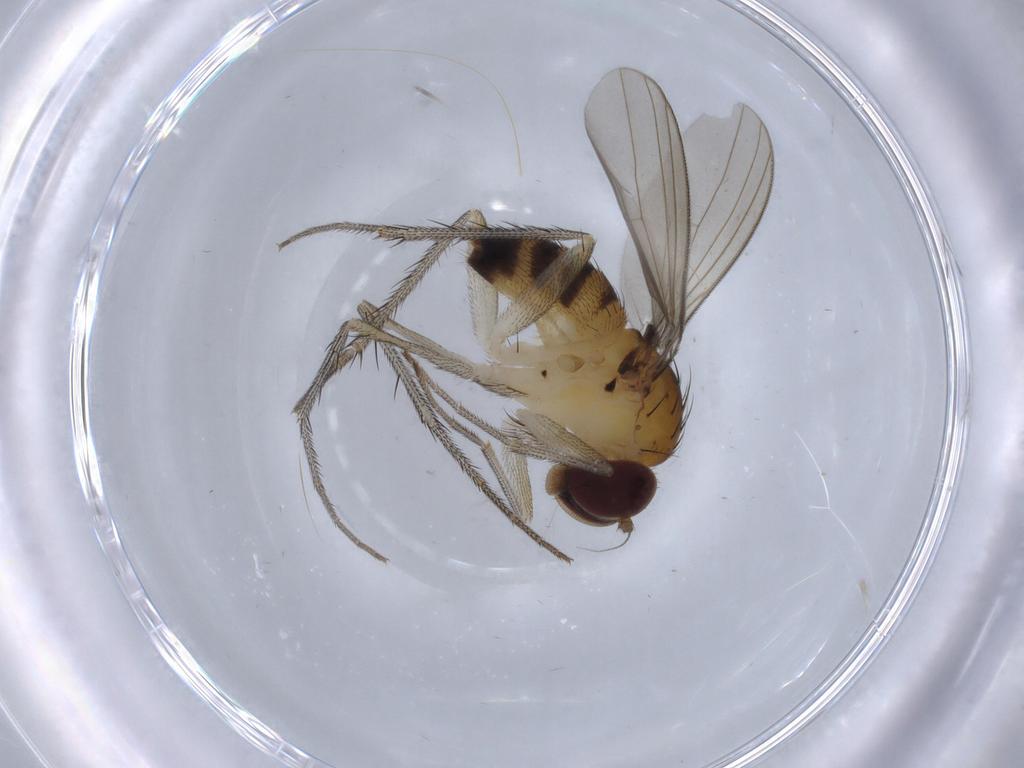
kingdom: Animalia
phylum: Arthropoda
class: Insecta
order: Diptera
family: Dolichopodidae
